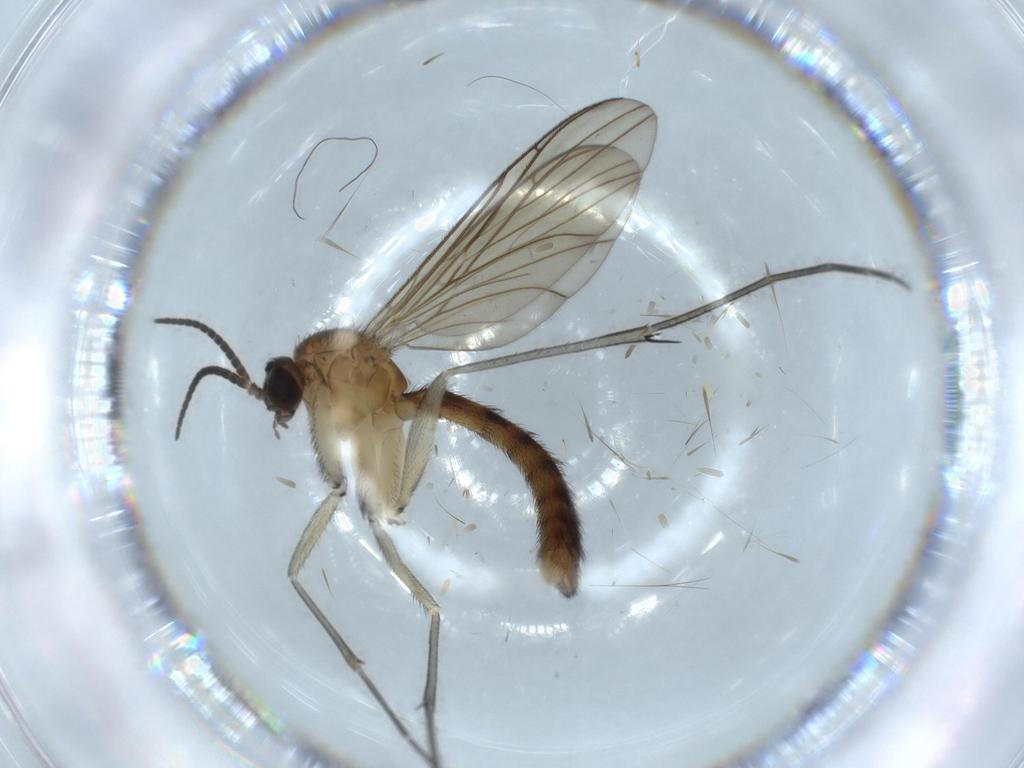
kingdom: Animalia
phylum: Arthropoda
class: Insecta
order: Diptera
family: Keroplatidae
